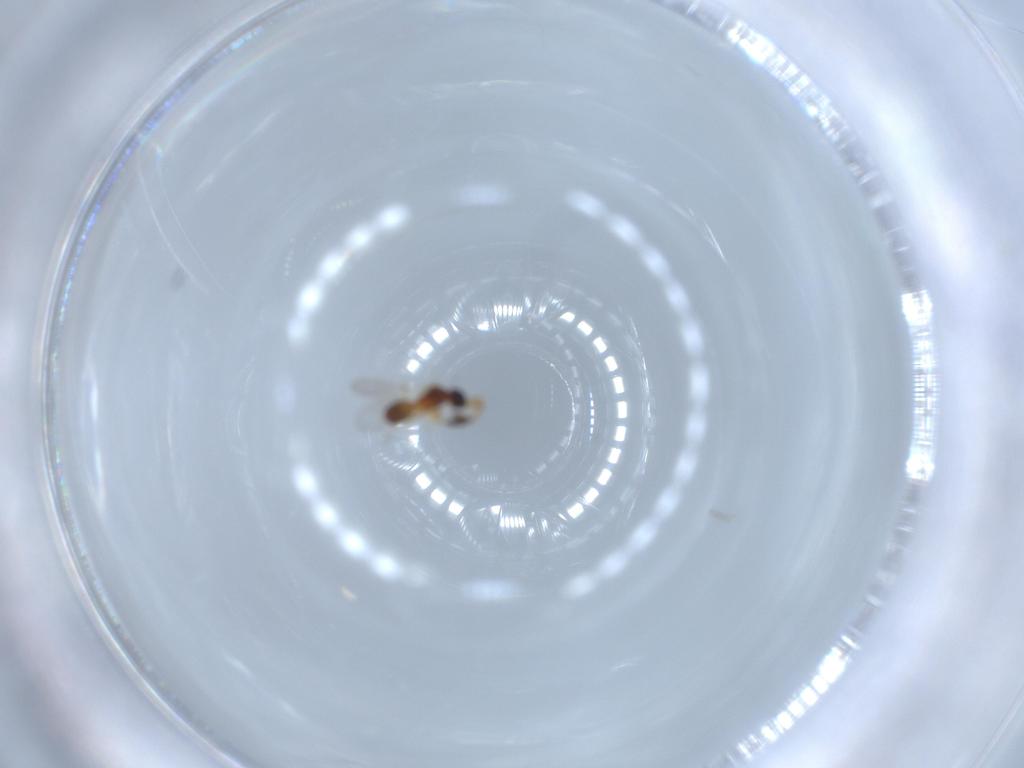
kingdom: Animalia
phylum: Arthropoda
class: Insecta
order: Hymenoptera
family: Diapriidae
